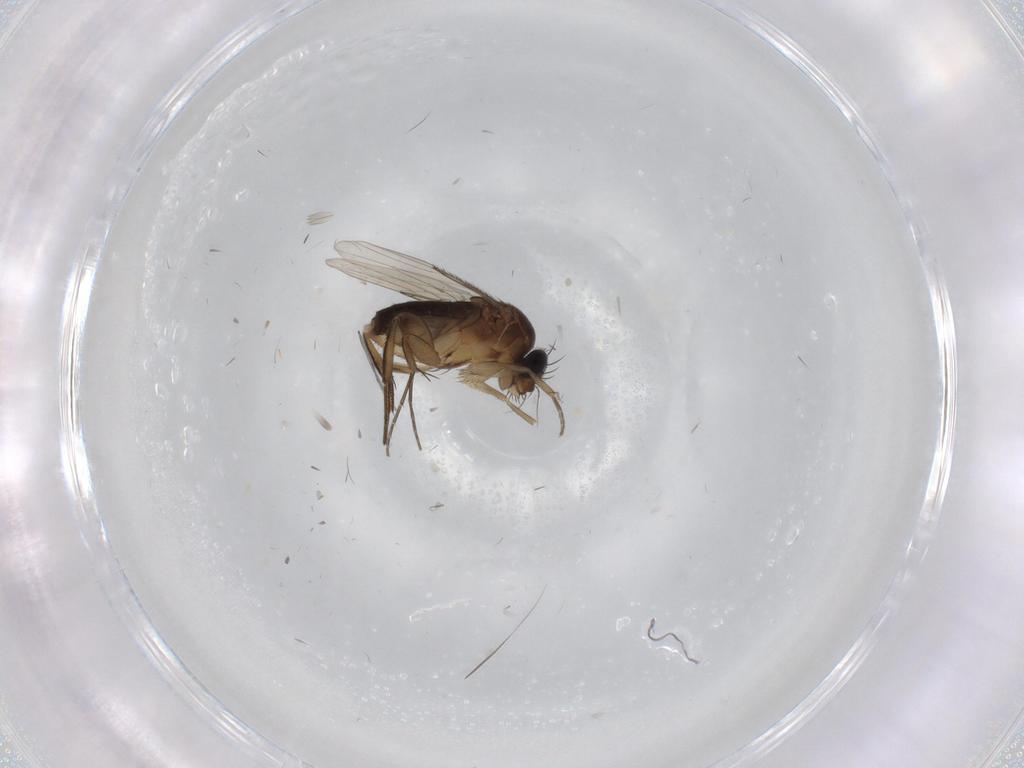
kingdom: Animalia
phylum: Arthropoda
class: Insecta
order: Diptera
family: Phoridae
